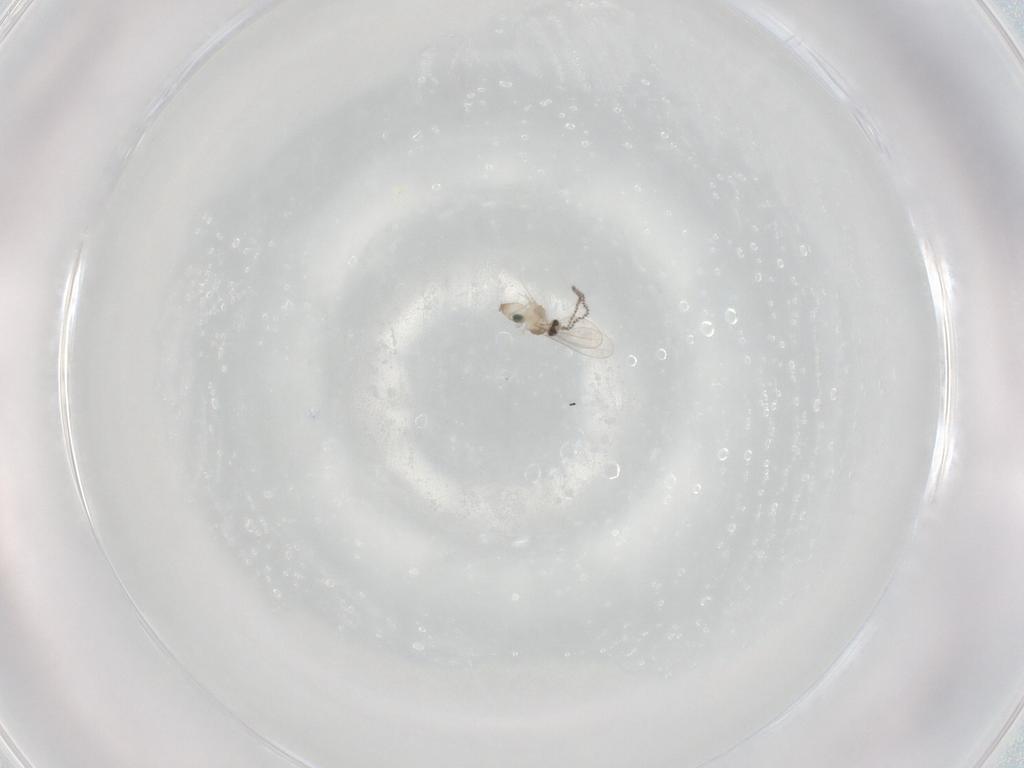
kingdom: Animalia
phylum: Arthropoda
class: Insecta
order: Diptera
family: Cecidomyiidae
